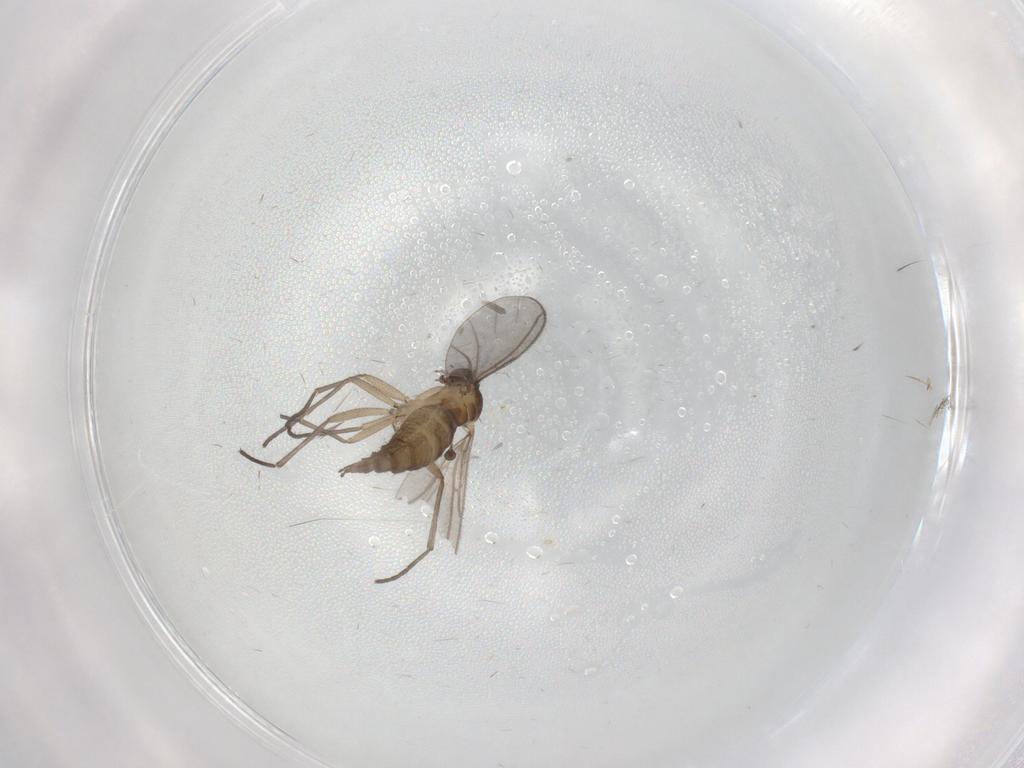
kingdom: Animalia
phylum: Arthropoda
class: Insecta
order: Diptera
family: Sciaridae
